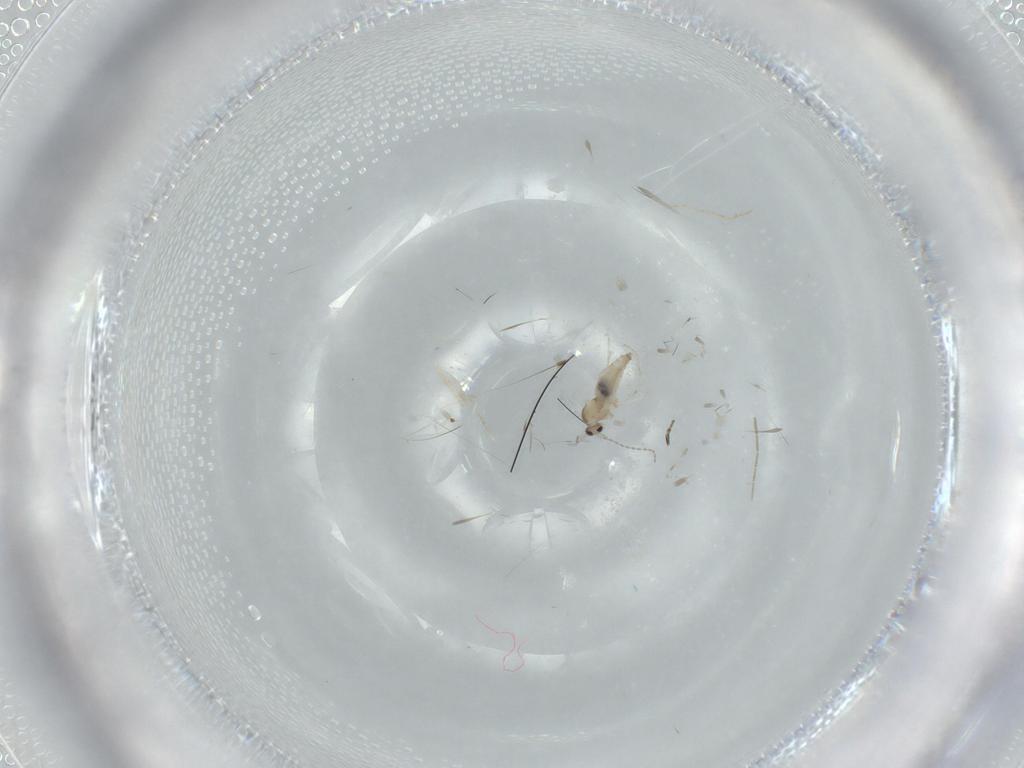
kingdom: Animalia
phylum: Arthropoda
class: Insecta
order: Diptera
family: Cecidomyiidae
